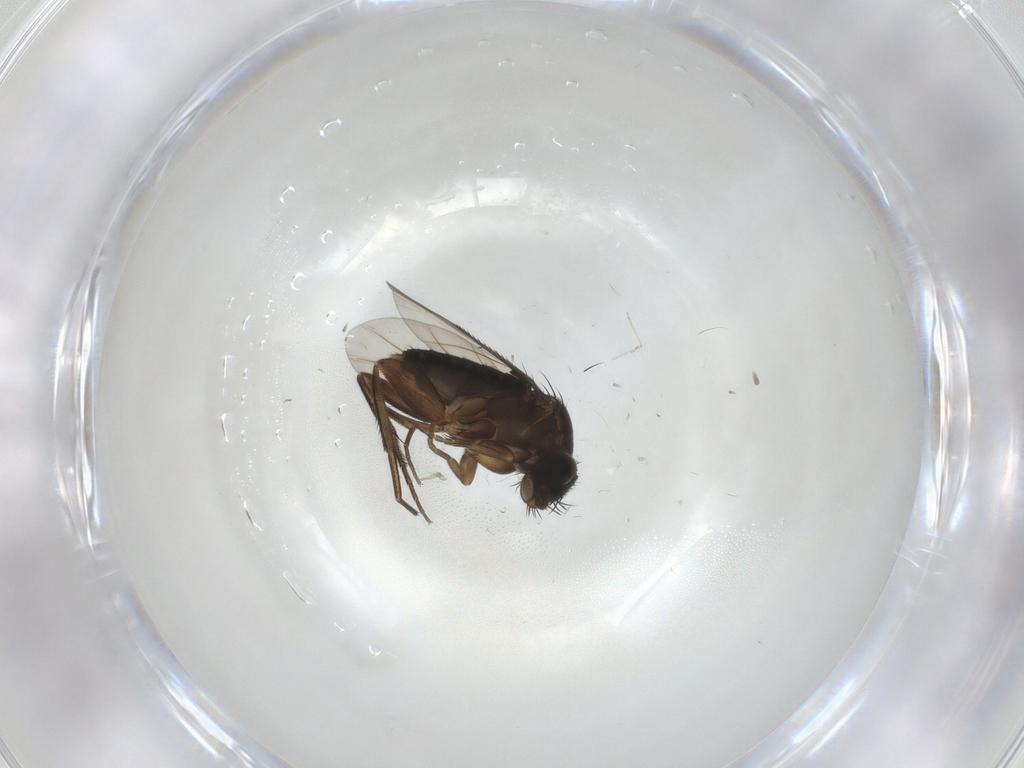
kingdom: Animalia
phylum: Arthropoda
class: Insecta
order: Diptera
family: Phoridae
